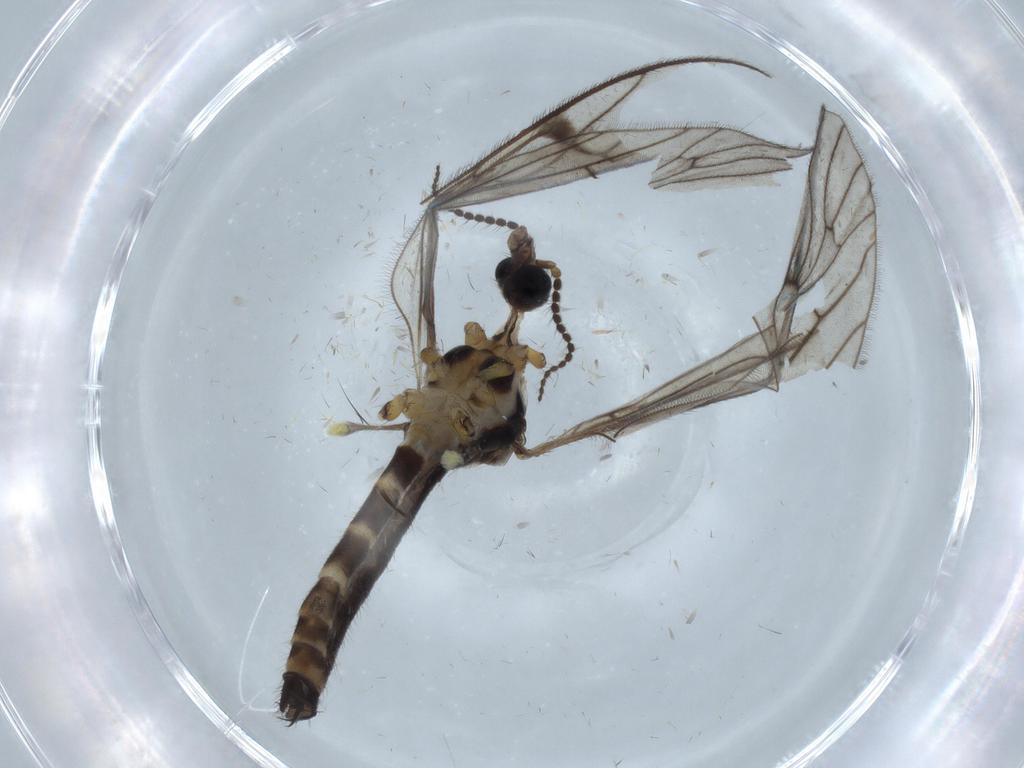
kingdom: Animalia
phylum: Arthropoda
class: Insecta
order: Diptera
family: Limoniidae
